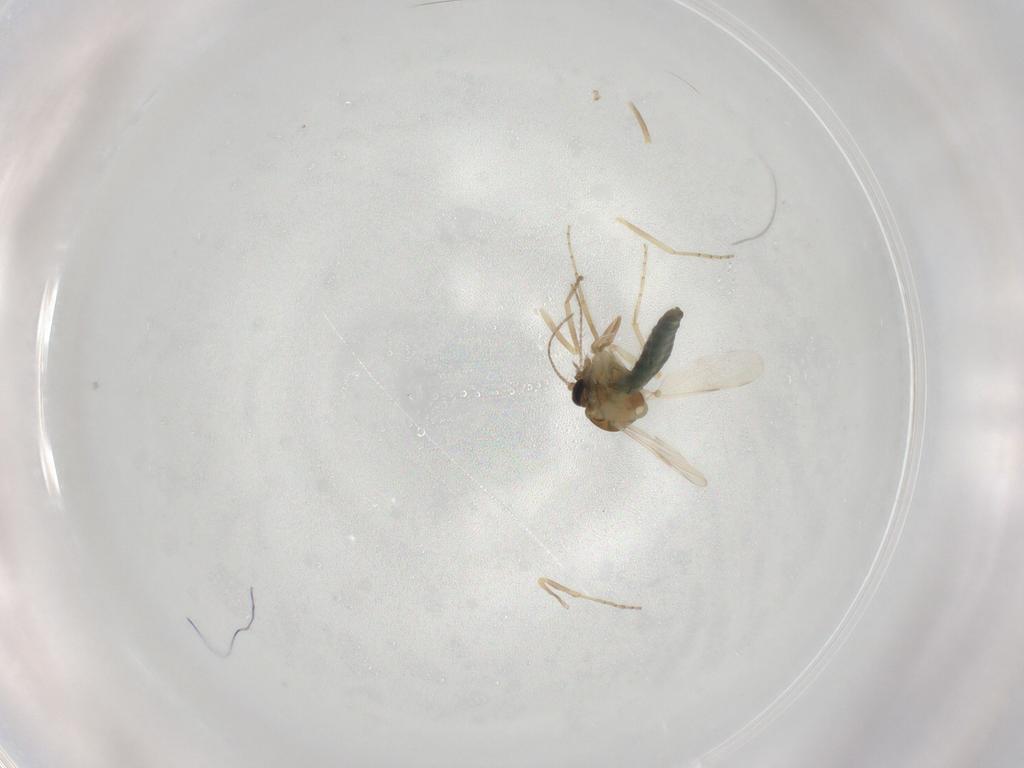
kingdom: Animalia
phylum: Arthropoda
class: Insecta
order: Diptera
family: Ceratopogonidae
